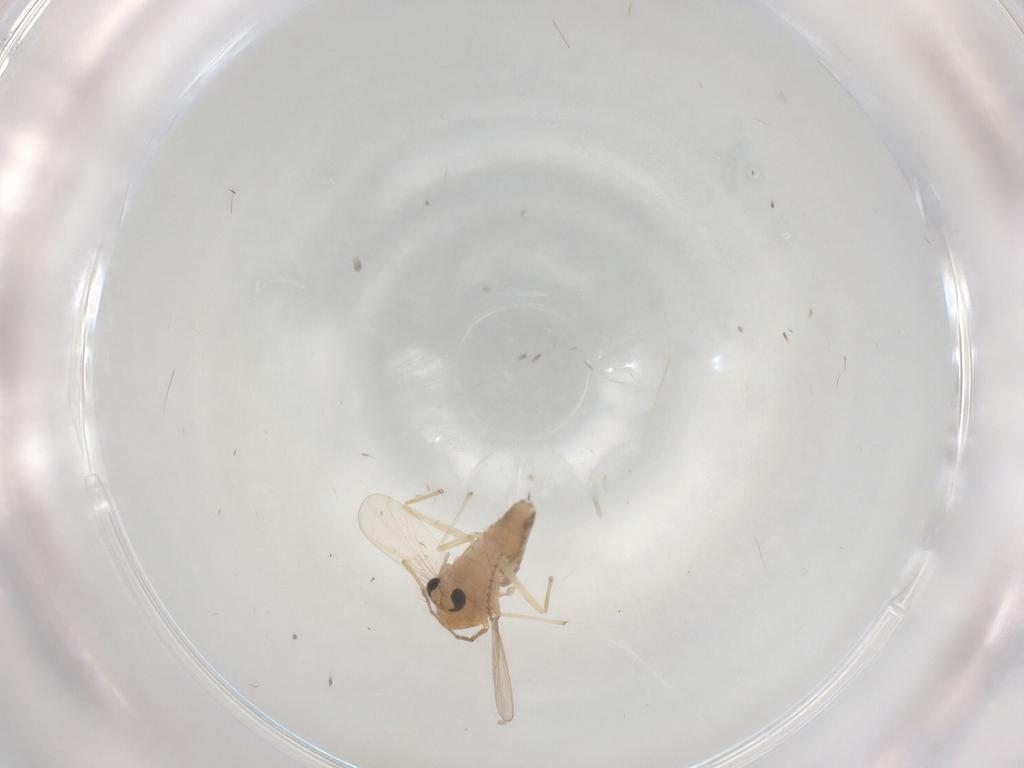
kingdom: Animalia
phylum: Arthropoda
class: Insecta
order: Diptera
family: Chironomidae
